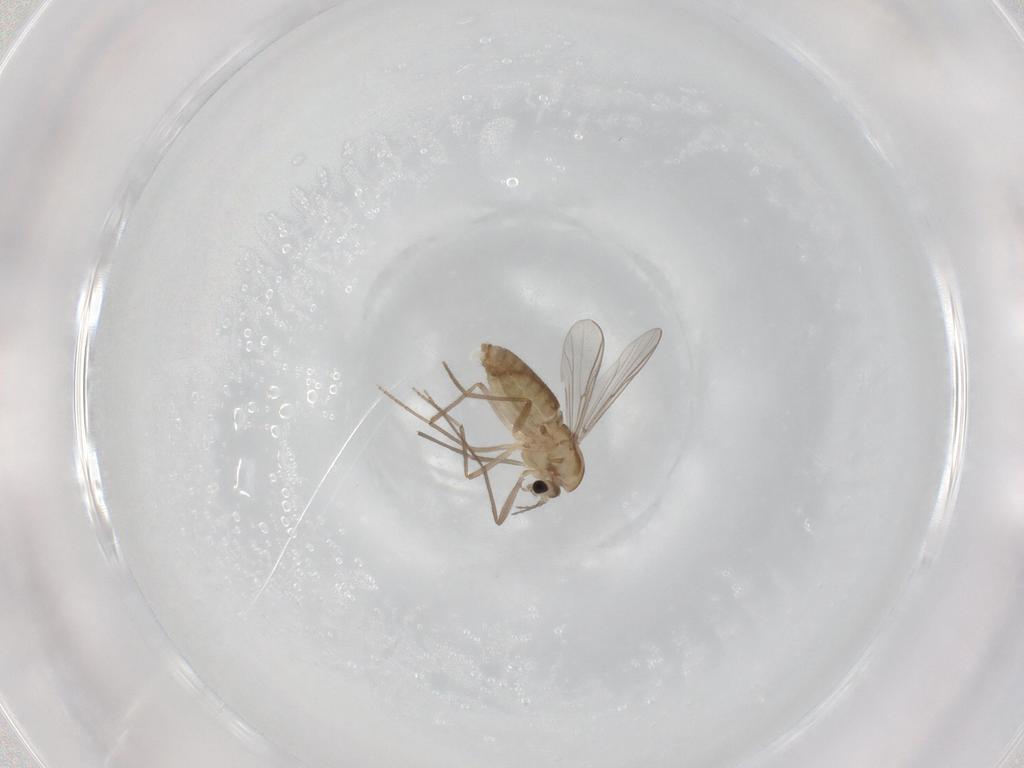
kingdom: Animalia
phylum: Arthropoda
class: Insecta
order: Diptera
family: Chironomidae
